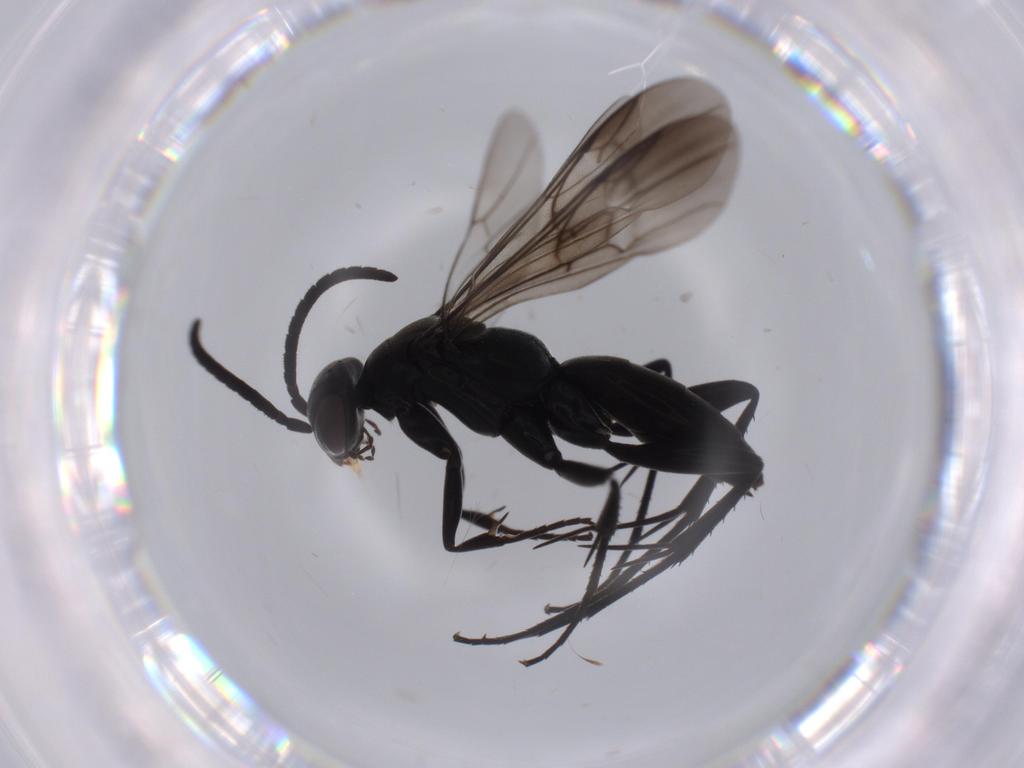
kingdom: Animalia
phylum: Arthropoda
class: Insecta
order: Hymenoptera
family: Pompilidae
